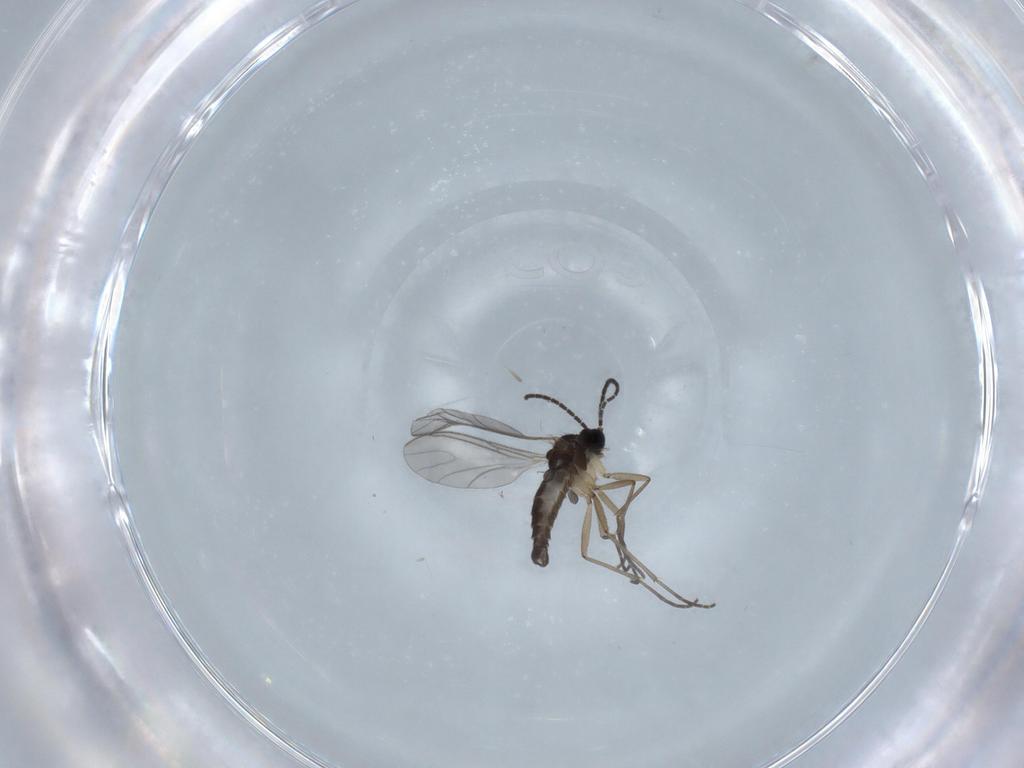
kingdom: Animalia
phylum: Arthropoda
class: Insecta
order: Diptera
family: Sciaridae
